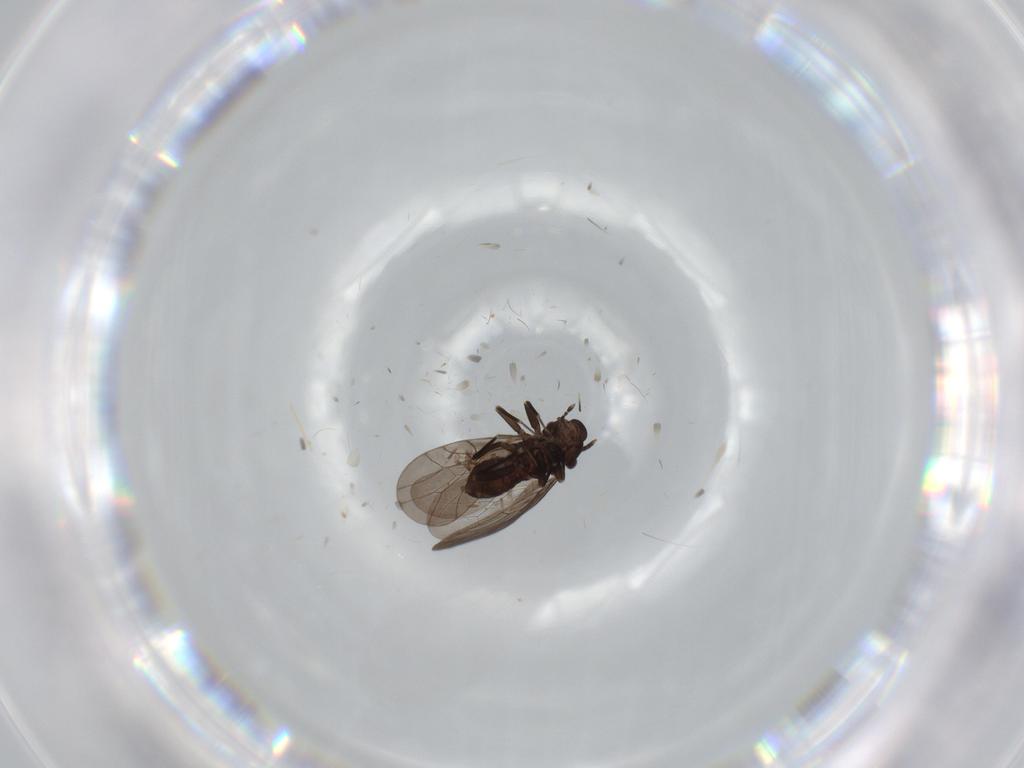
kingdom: Animalia
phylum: Arthropoda
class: Insecta
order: Psocodea
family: Lepidopsocidae
